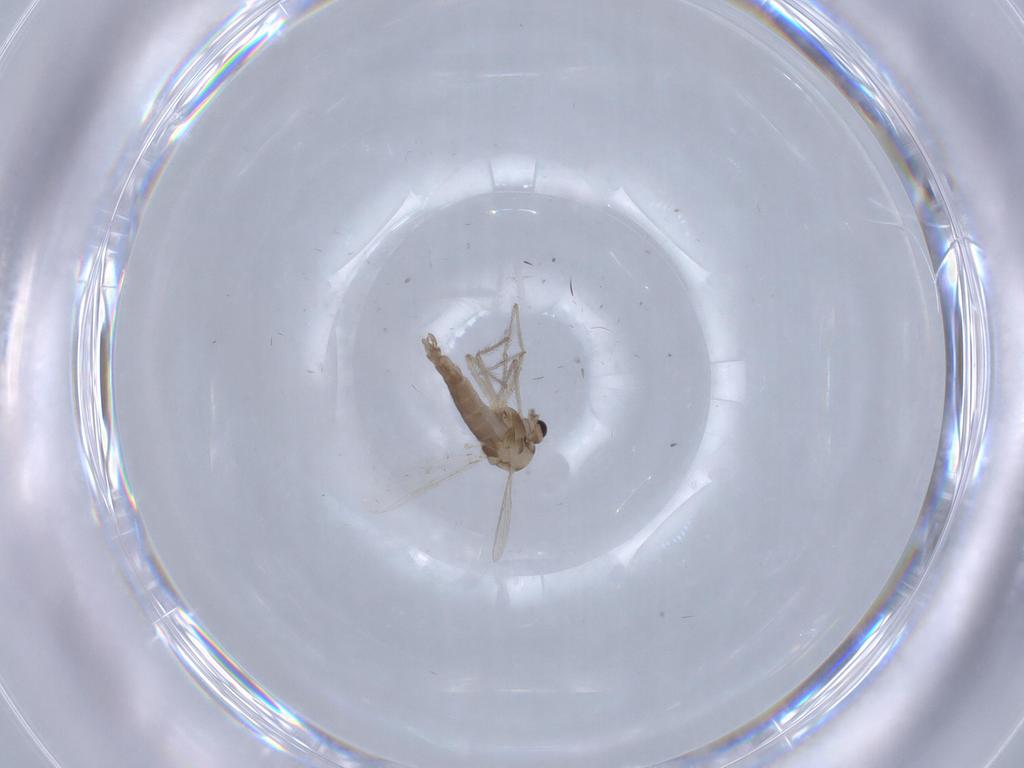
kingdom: Animalia
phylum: Arthropoda
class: Insecta
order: Diptera
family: Chironomidae
